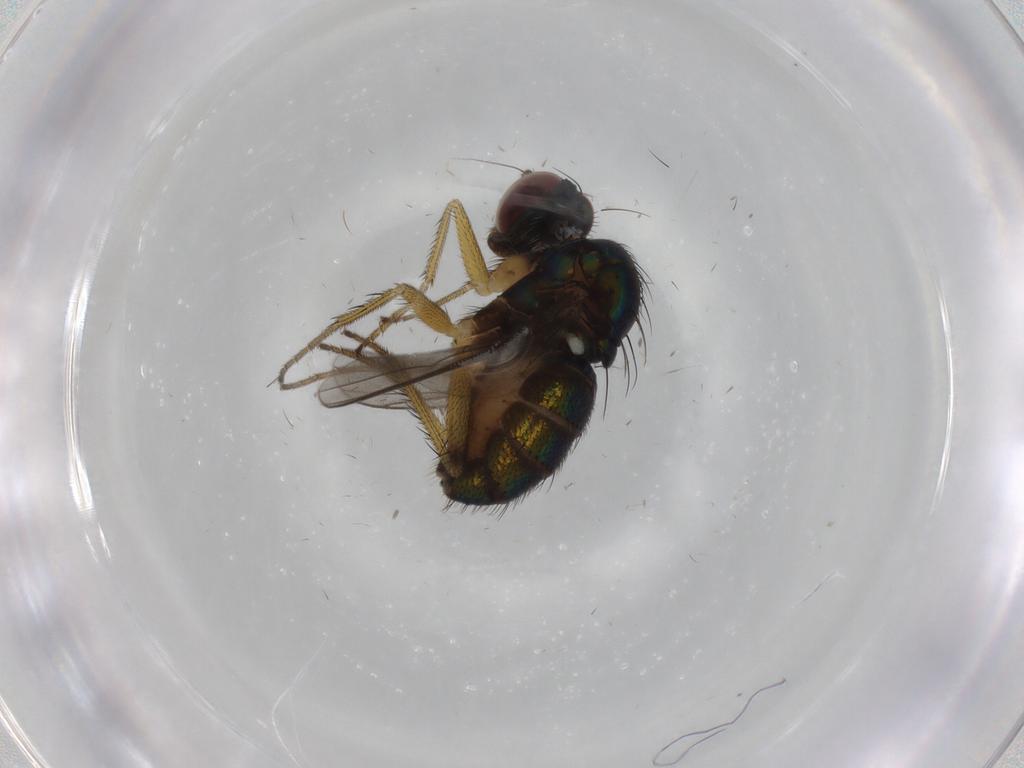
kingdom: Animalia
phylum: Arthropoda
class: Insecta
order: Diptera
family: Dolichopodidae
